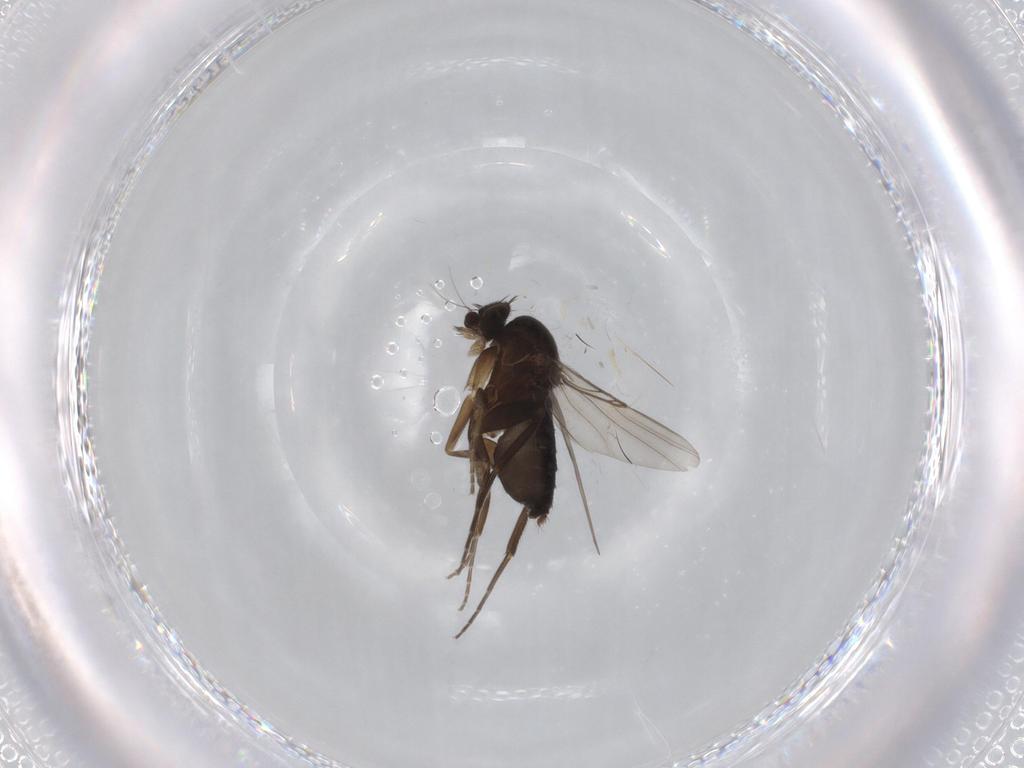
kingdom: Animalia
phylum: Arthropoda
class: Insecta
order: Diptera
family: Phoridae
